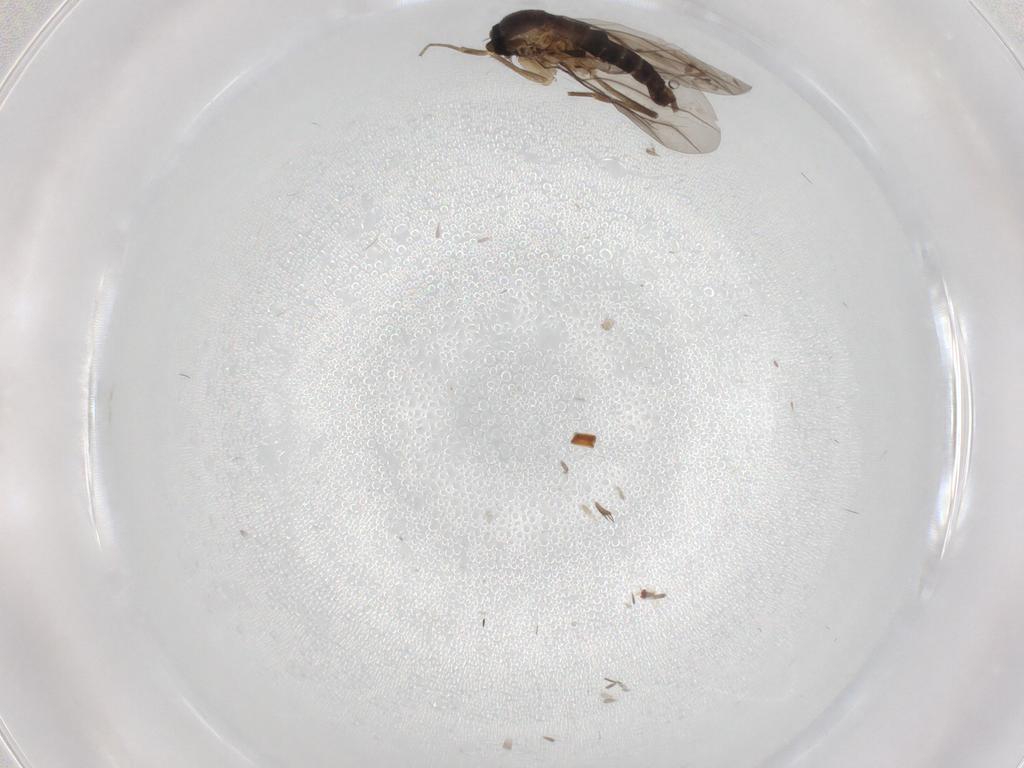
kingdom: Animalia
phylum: Arthropoda
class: Insecta
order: Diptera
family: Phoridae
